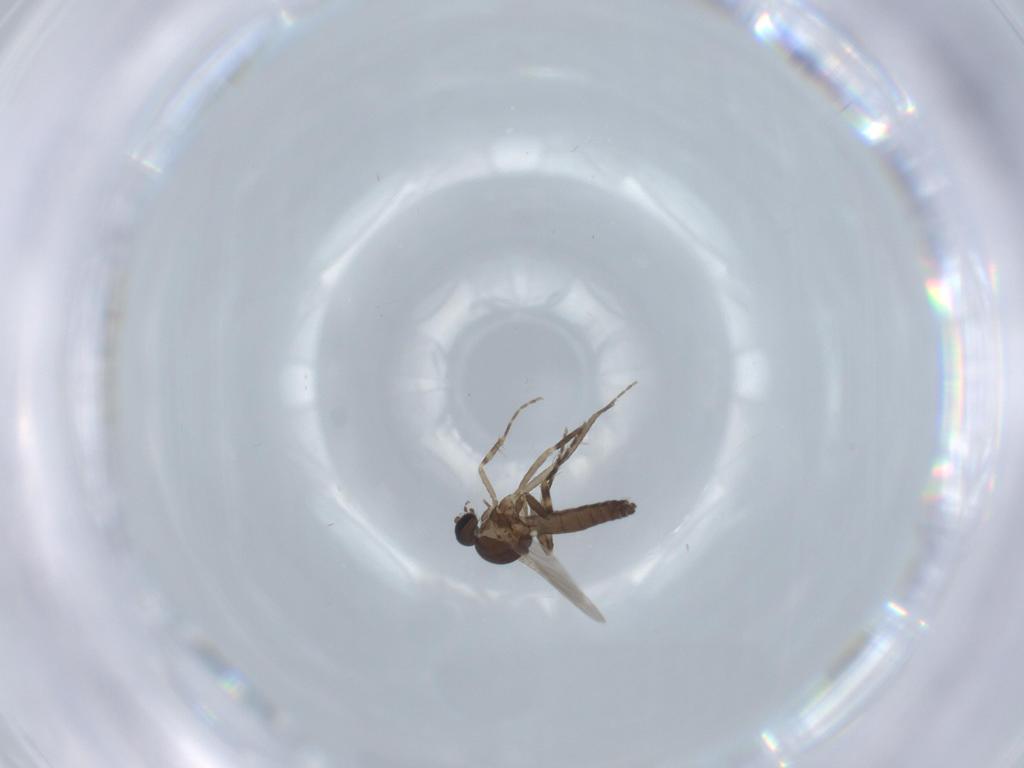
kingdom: Animalia
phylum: Arthropoda
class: Insecta
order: Diptera
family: Ceratopogonidae
